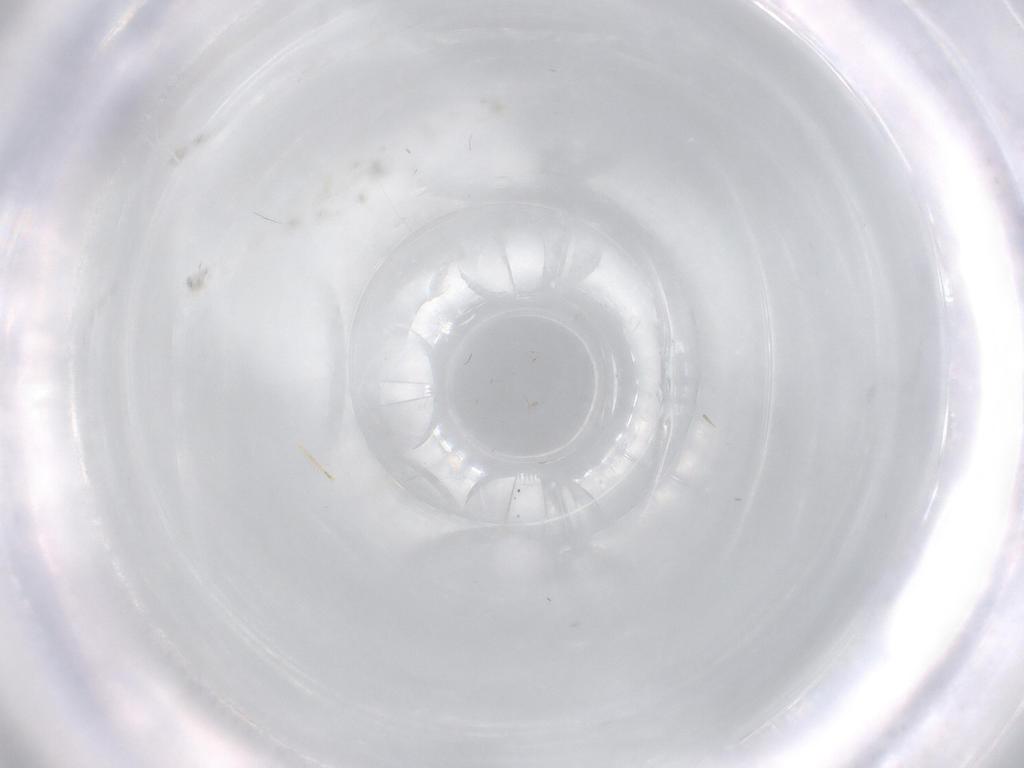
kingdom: Animalia
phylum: Arthropoda
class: Insecta
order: Diptera
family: Cecidomyiidae
